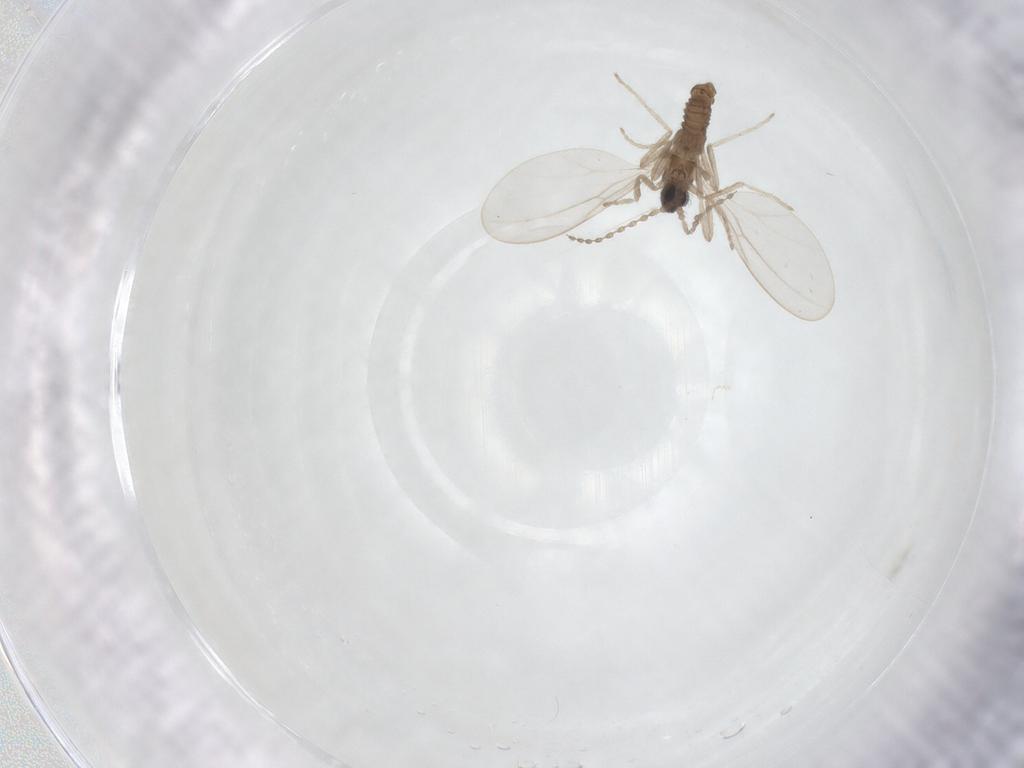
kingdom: Animalia
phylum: Arthropoda
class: Insecta
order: Diptera
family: Cecidomyiidae
